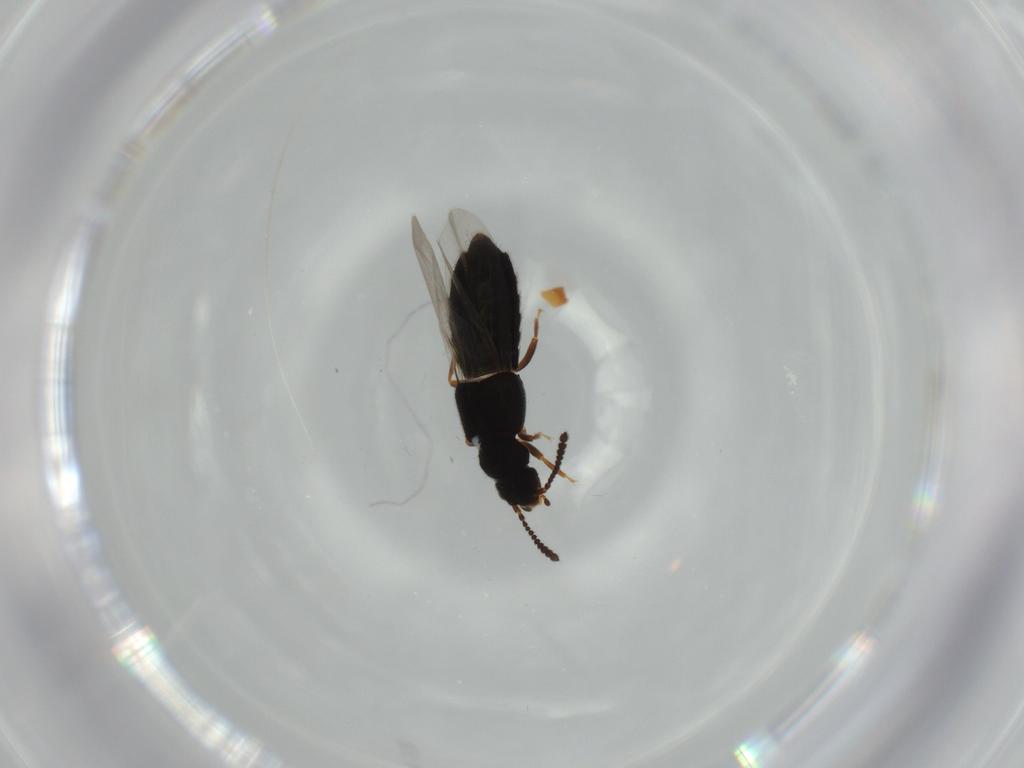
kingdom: Animalia
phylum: Arthropoda
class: Insecta
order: Coleoptera
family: Staphylinidae
